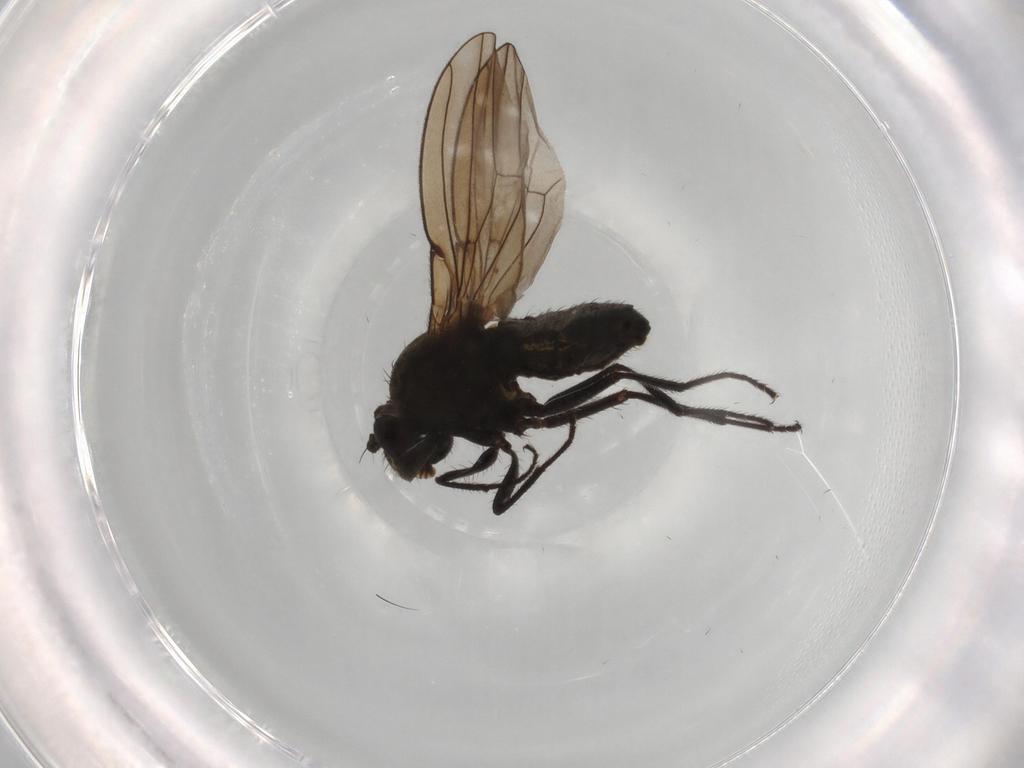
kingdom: Animalia
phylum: Arthropoda
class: Insecta
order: Diptera
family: Ephydridae
